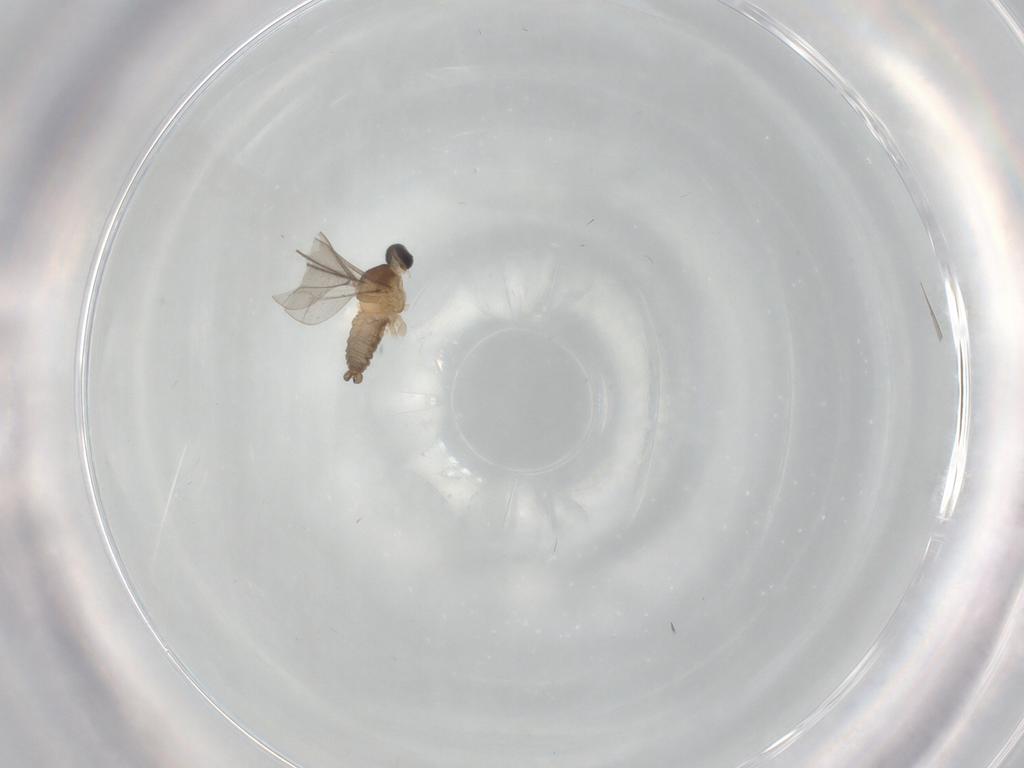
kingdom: Animalia
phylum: Arthropoda
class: Insecta
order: Diptera
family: Cecidomyiidae
